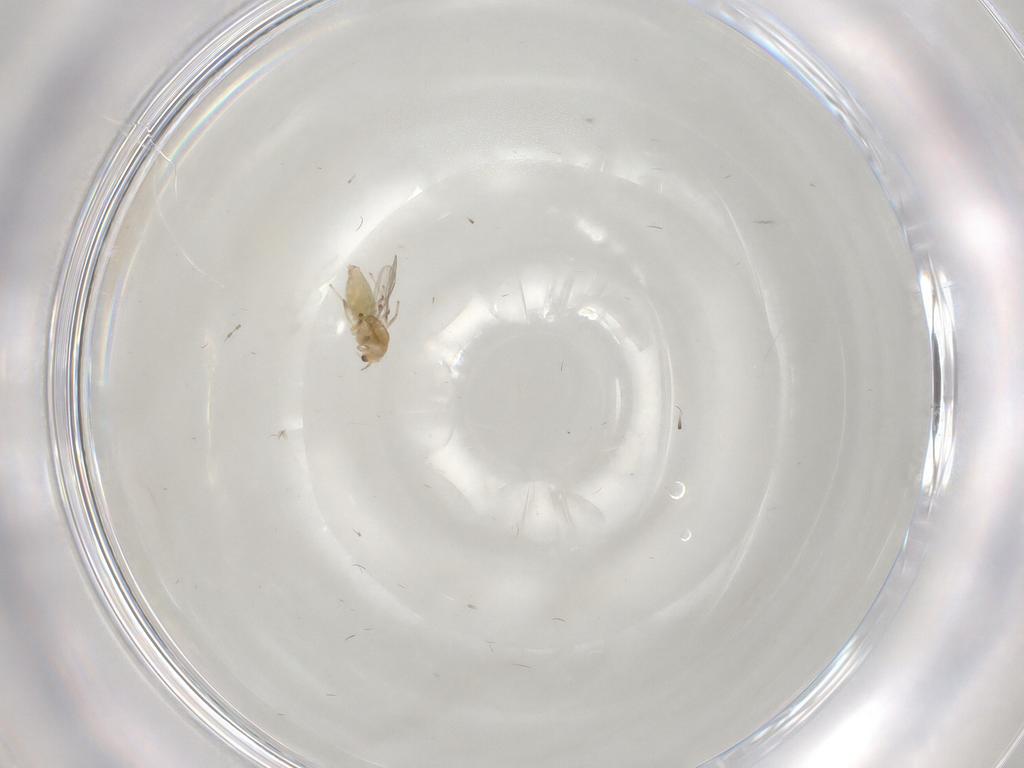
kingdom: Animalia
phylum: Arthropoda
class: Insecta
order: Diptera
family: Chironomidae
